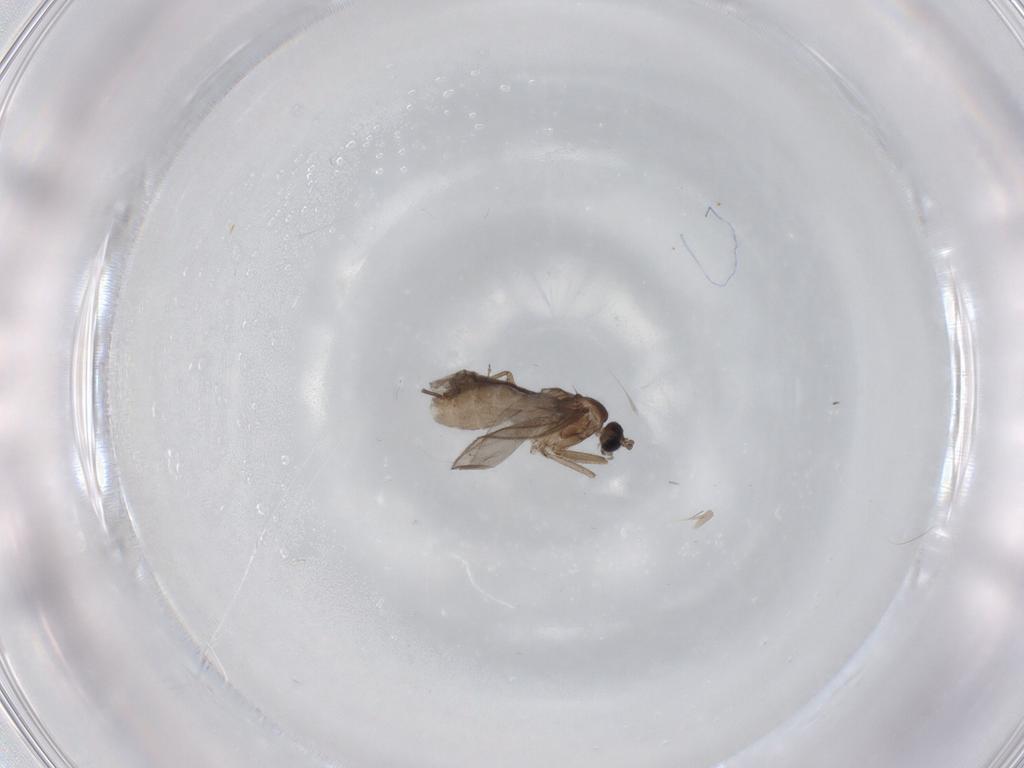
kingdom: Animalia
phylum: Arthropoda
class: Insecta
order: Diptera
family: Sciaridae
